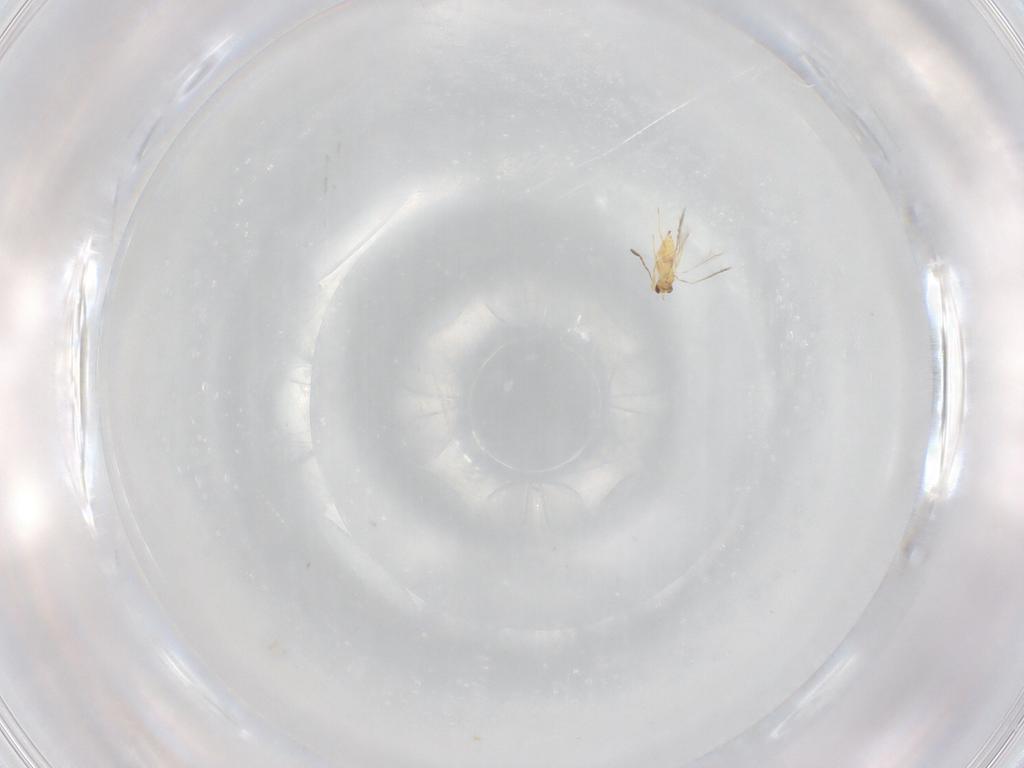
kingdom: Animalia
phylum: Arthropoda
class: Insecta
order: Hymenoptera
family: Mymaridae
